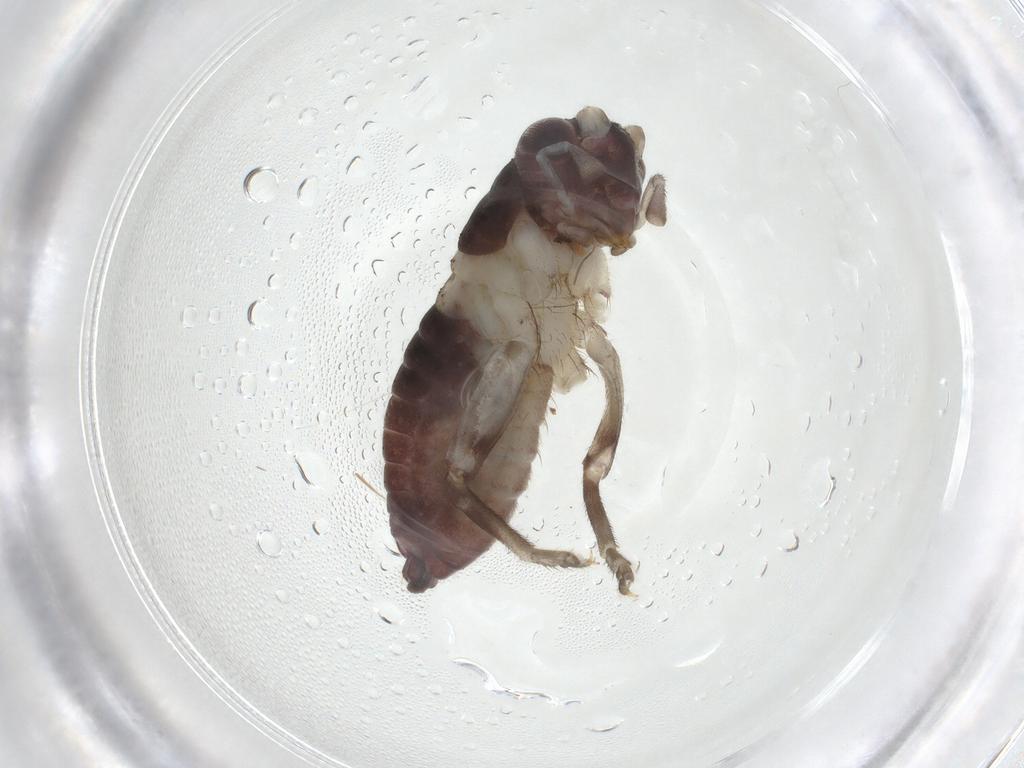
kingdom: Animalia
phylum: Arthropoda
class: Insecta
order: Orthoptera
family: Trigonidiidae
